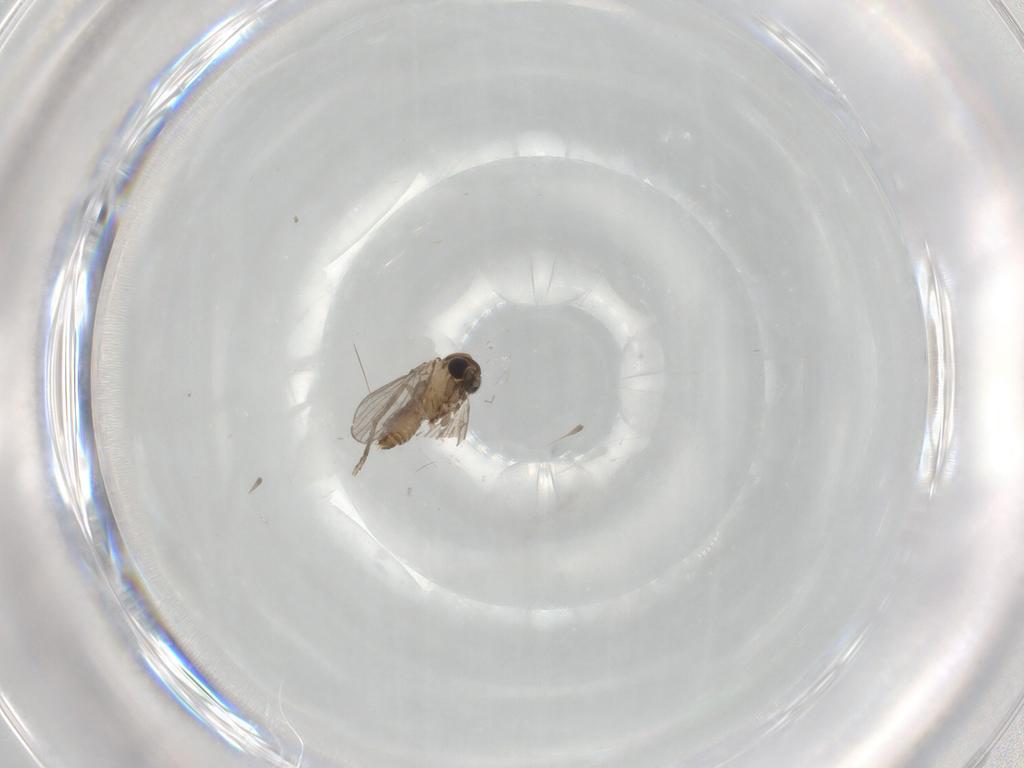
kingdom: Animalia
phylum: Arthropoda
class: Insecta
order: Diptera
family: Psychodidae
